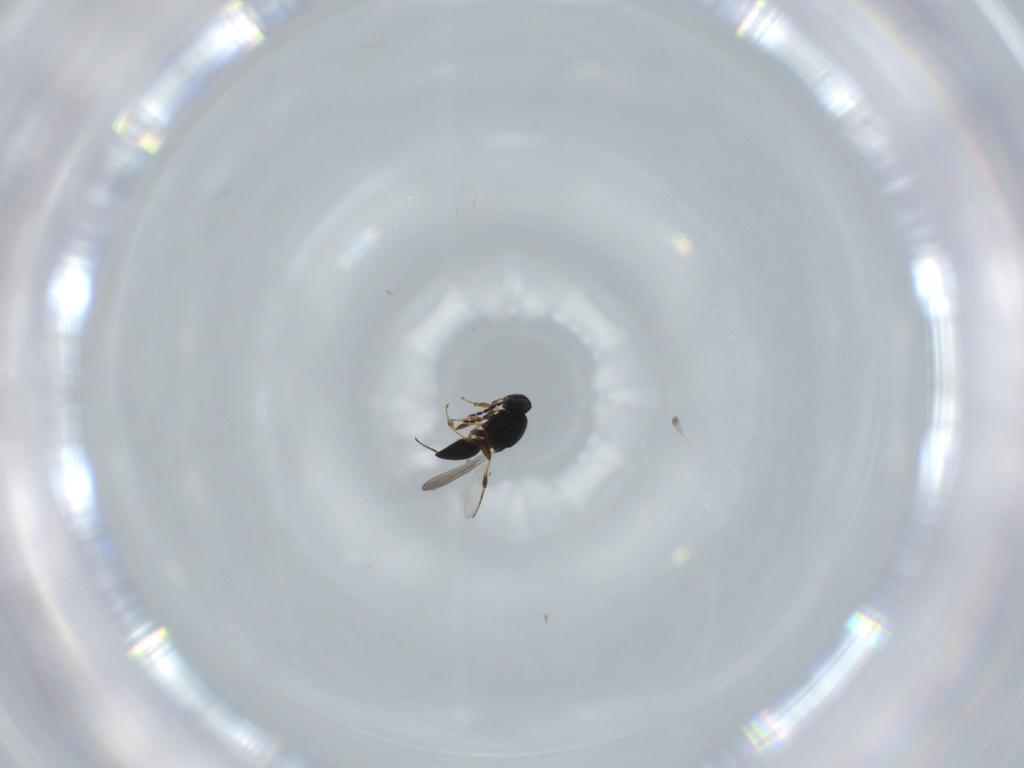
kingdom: Animalia
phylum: Arthropoda
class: Insecta
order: Hymenoptera
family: Platygastridae
